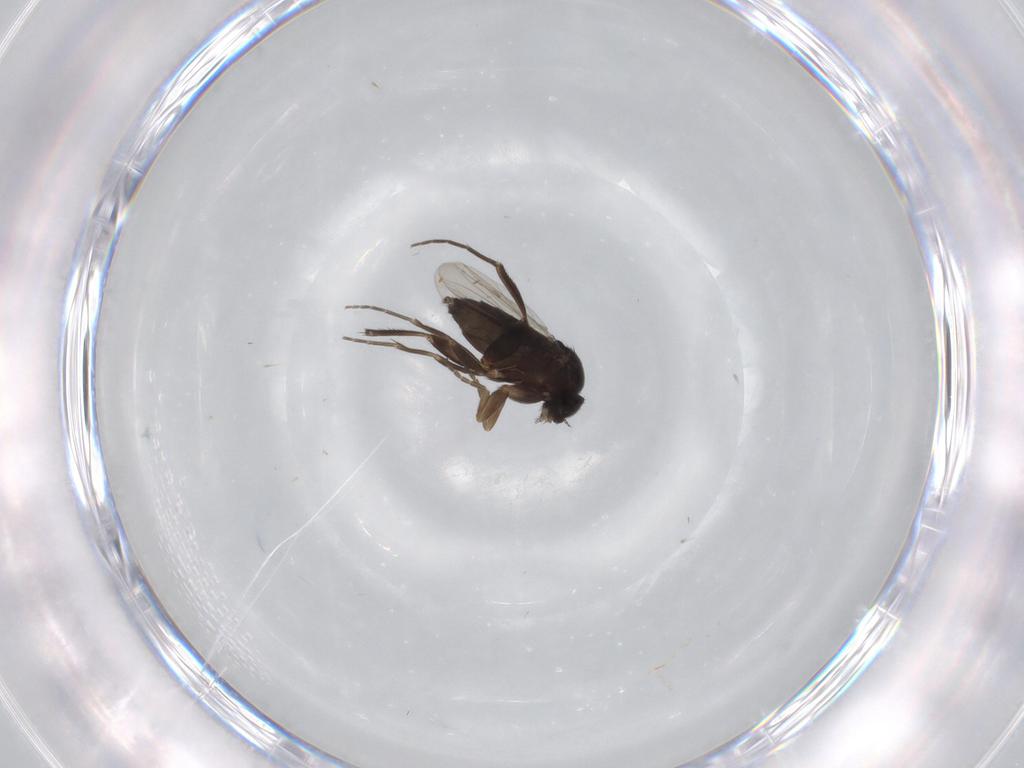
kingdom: Animalia
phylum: Arthropoda
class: Insecta
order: Diptera
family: Phoridae
